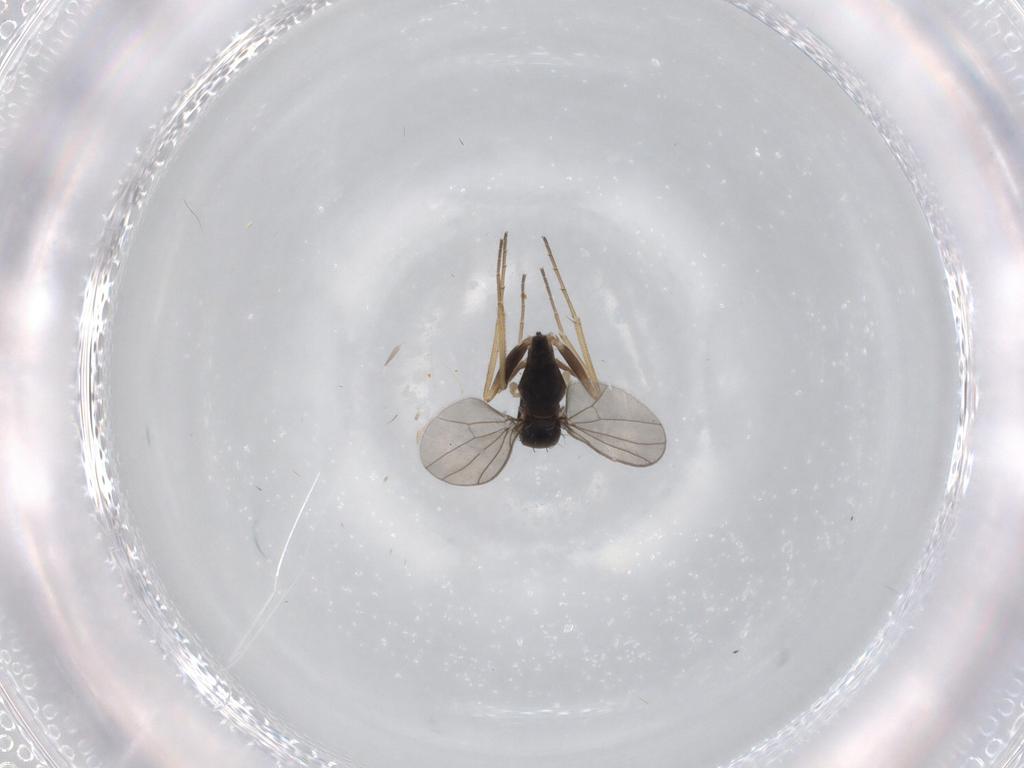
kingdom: Animalia
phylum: Arthropoda
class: Insecta
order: Diptera
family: Dolichopodidae
